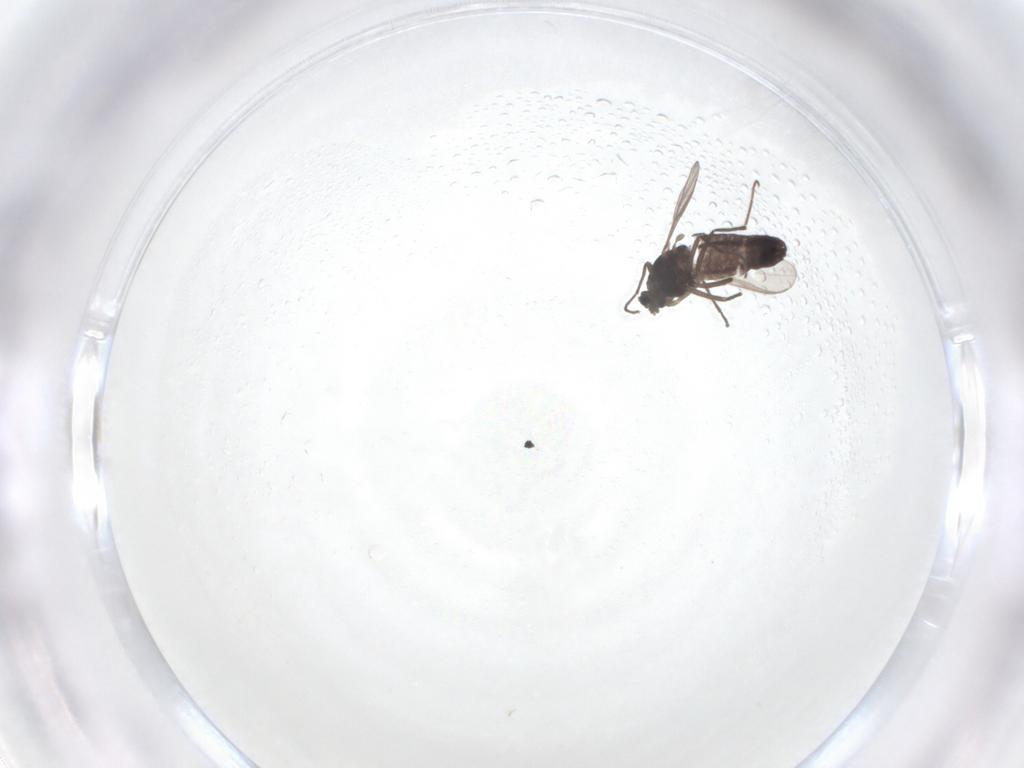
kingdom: Animalia
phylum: Arthropoda
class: Insecta
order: Diptera
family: Chironomidae
